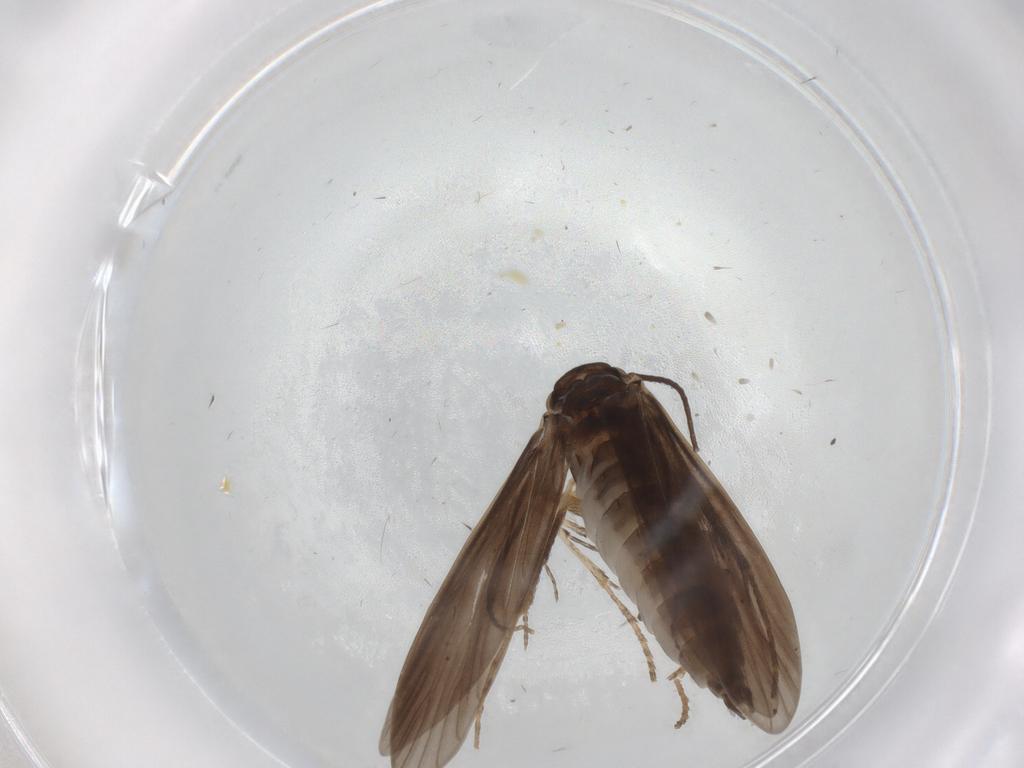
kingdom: Animalia
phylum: Arthropoda
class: Insecta
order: Trichoptera
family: Xiphocentronidae
